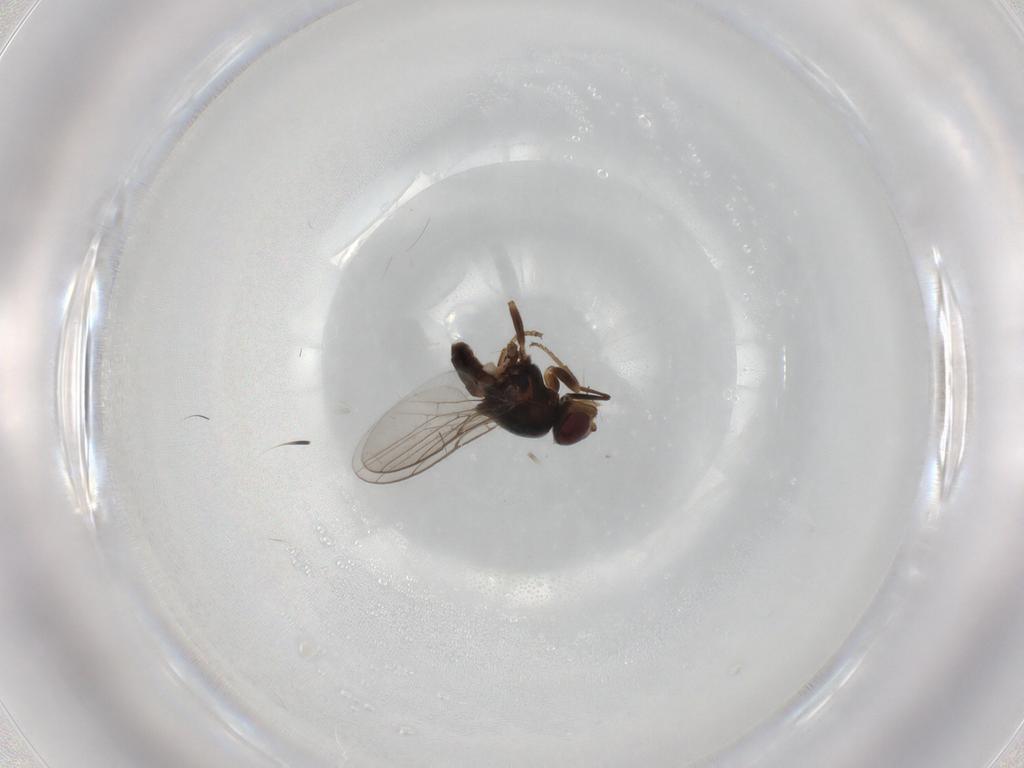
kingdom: Animalia
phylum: Arthropoda
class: Insecta
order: Diptera
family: Chloropidae
